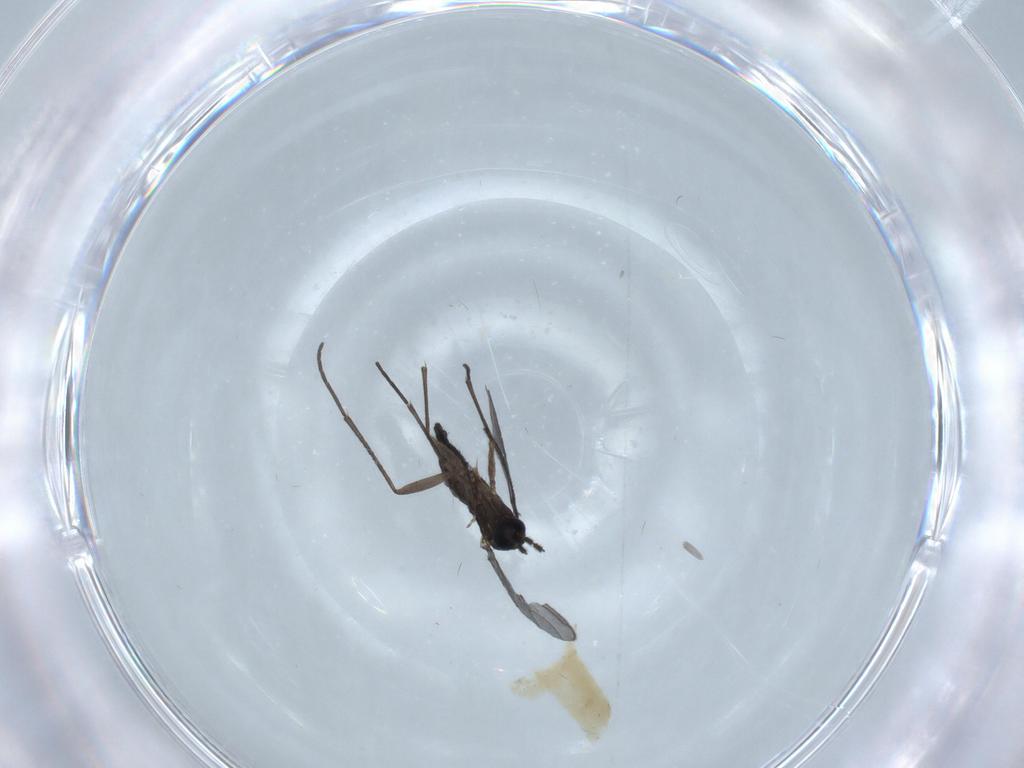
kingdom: Animalia
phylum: Arthropoda
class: Insecta
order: Diptera
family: Sciaridae
